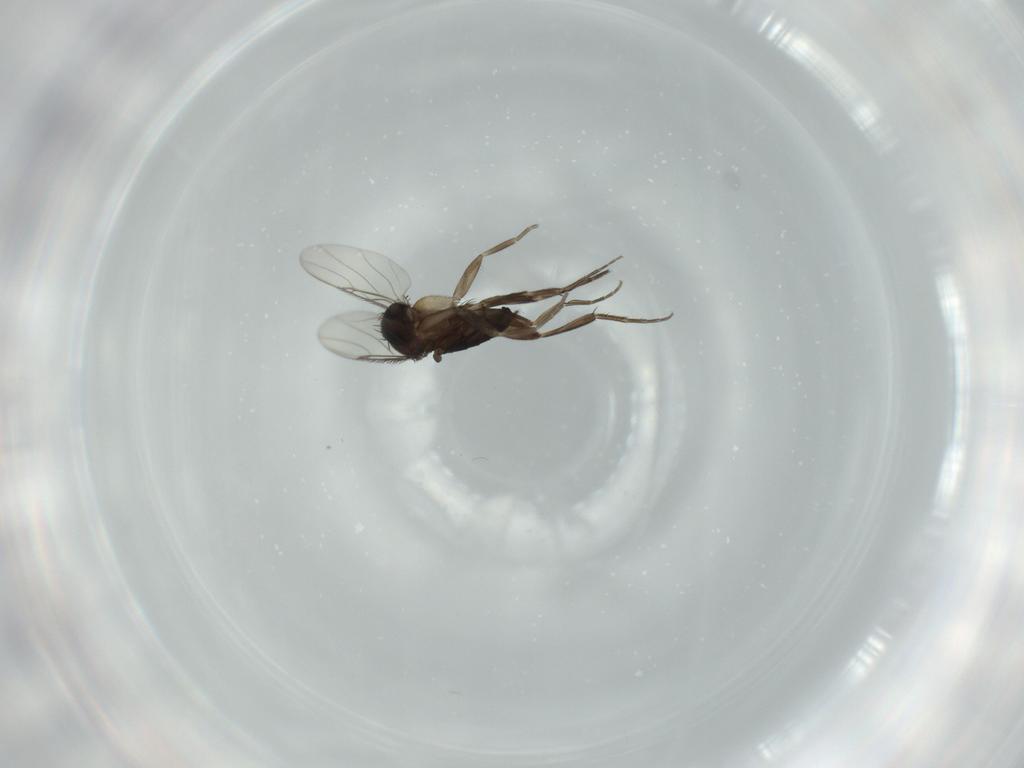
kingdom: Animalia
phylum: Arthropoda
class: Insecta
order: Diptera
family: Phoridae
